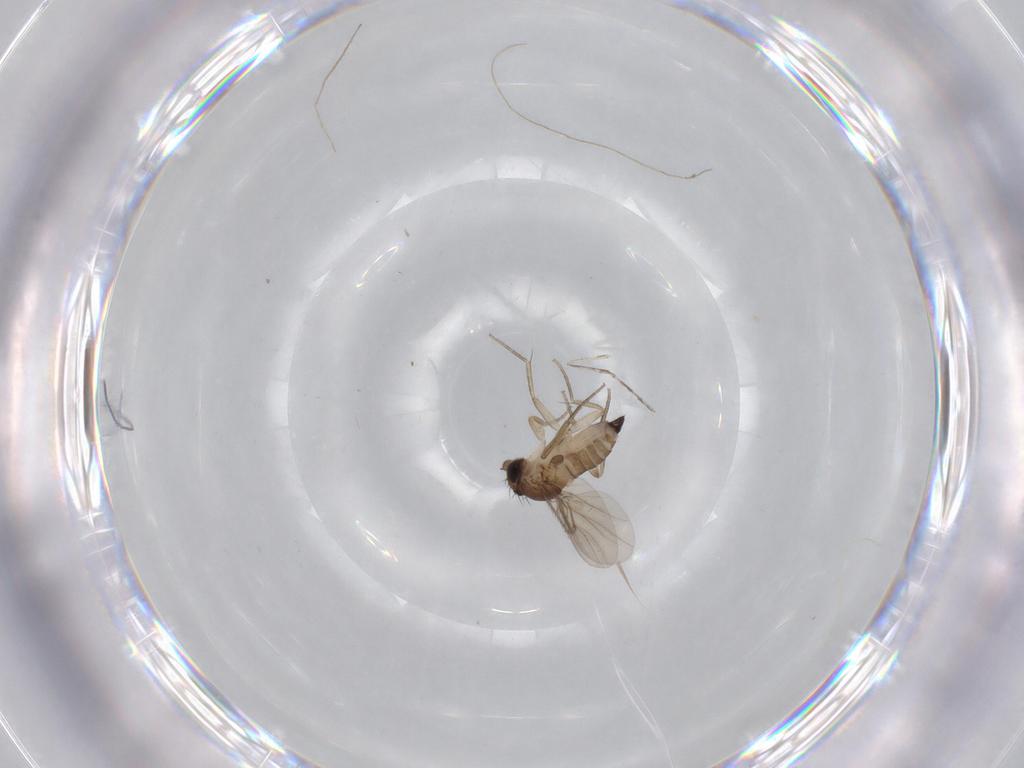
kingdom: Animalia
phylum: Arthropoda
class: Insecta
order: Diptera
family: Phoridae
